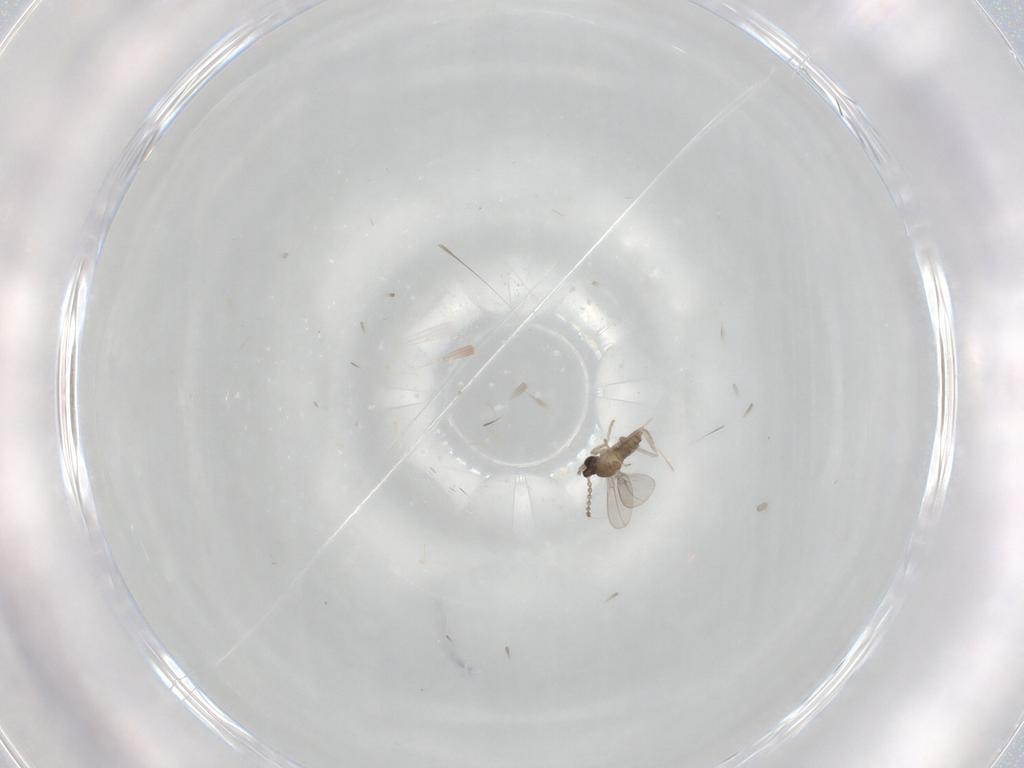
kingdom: Animalia
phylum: Arthropoda
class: Insecta
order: Diptera
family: Cecidomyiidae
